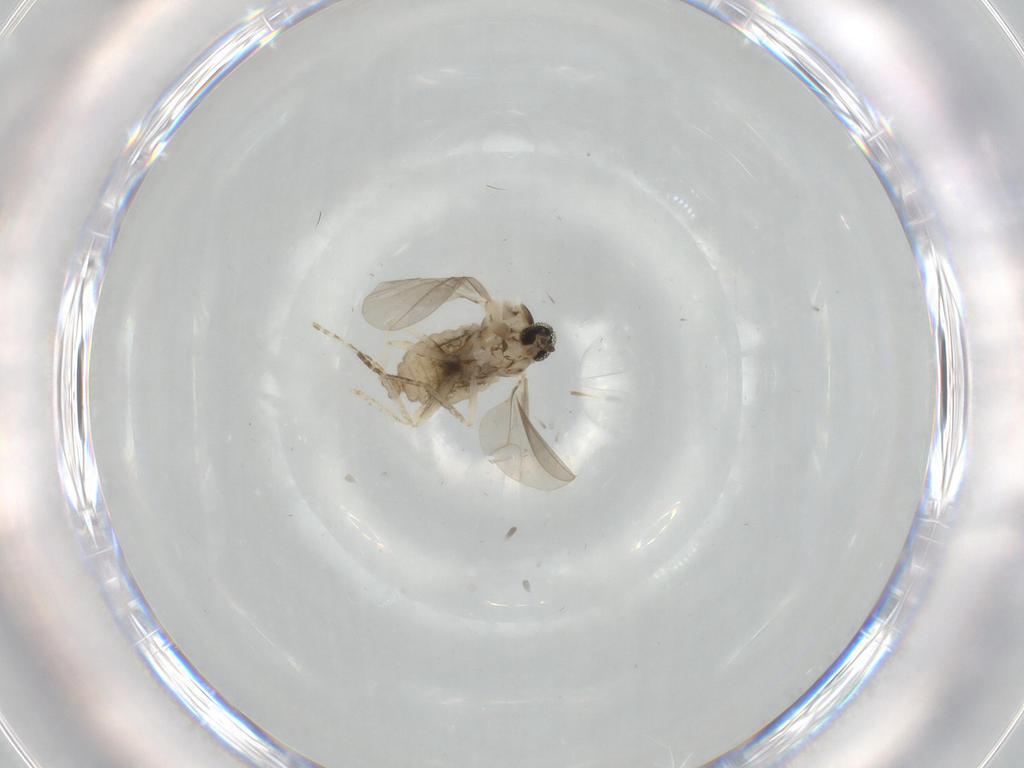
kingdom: Animalia
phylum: Arthropoda
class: Insecta
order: Diptera
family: Cecidomyiidae
